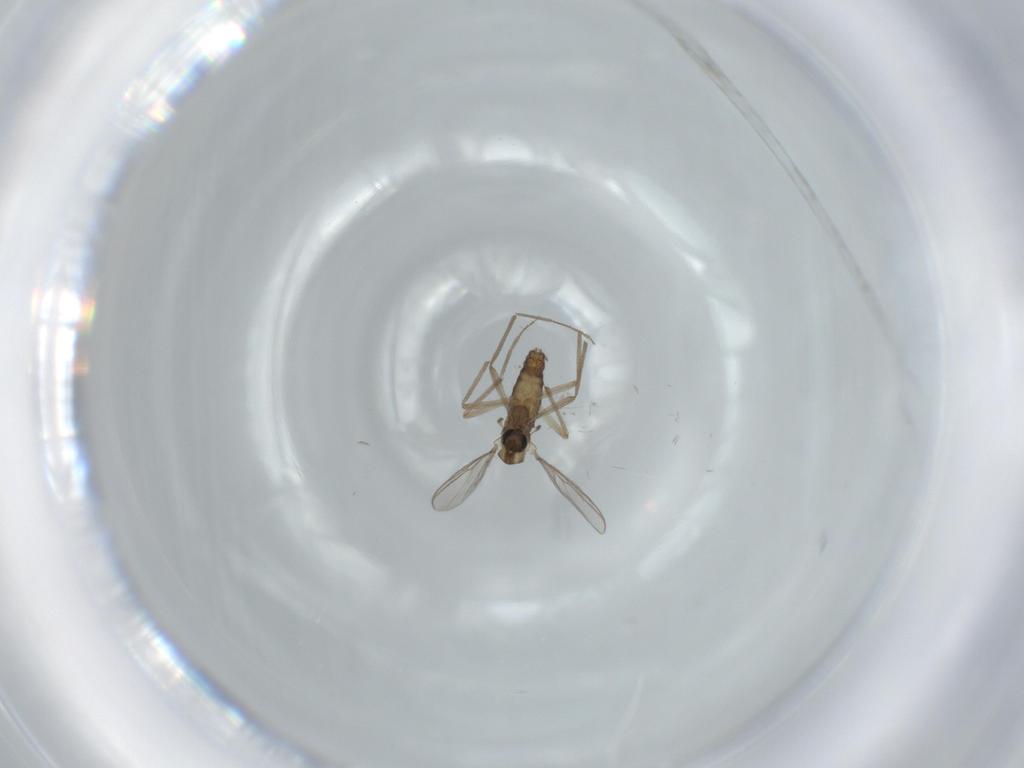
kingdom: Animalia
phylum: Arthropoda
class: Insecta
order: Diptera
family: Chironomidae
